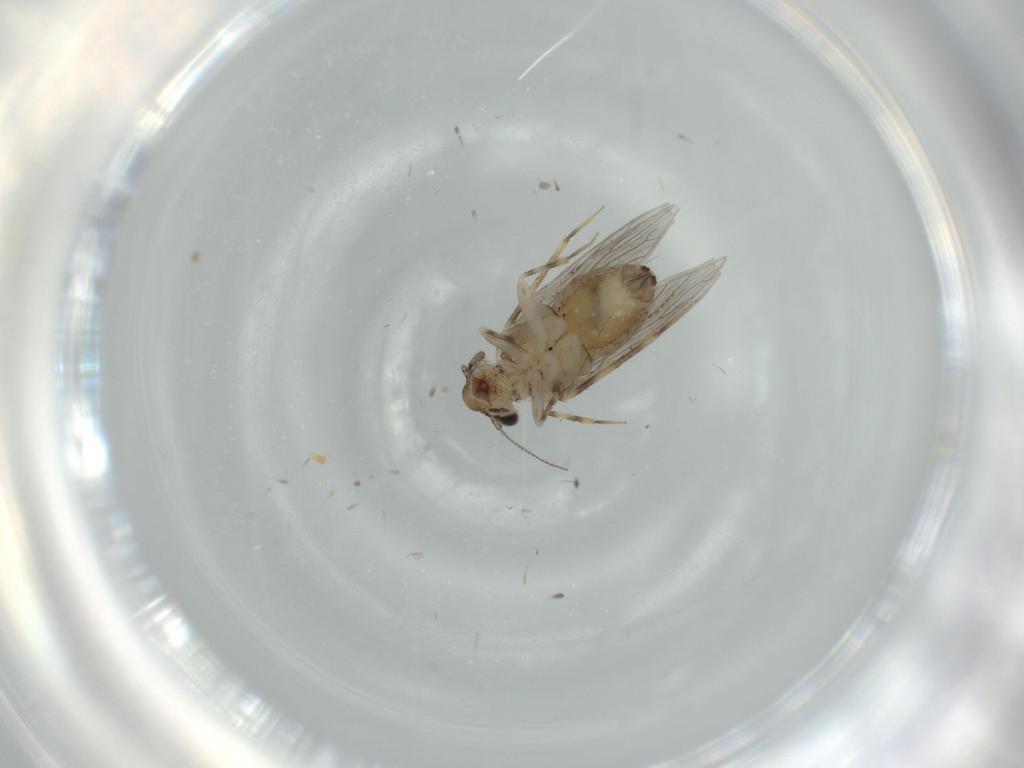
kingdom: Animalia
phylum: Arthropoda
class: Insecta
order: Psocodea
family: Lepidopsocidae
